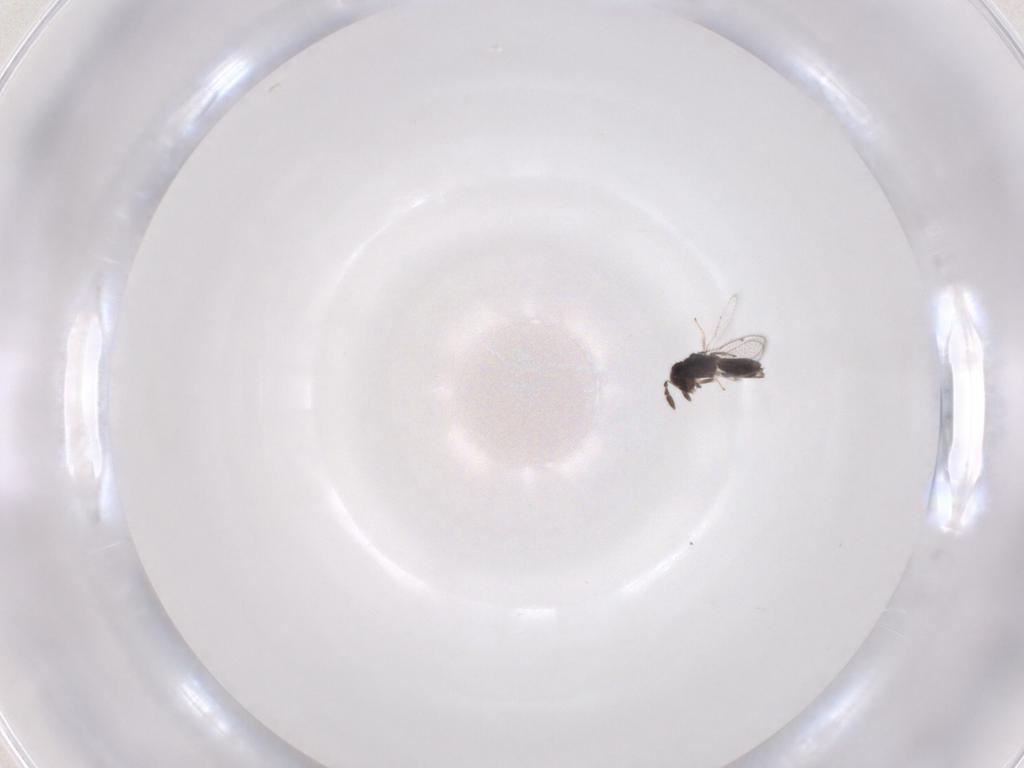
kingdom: Animalia
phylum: Arthropoda
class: Insecta
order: Hymenoptera
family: Pirenidae
